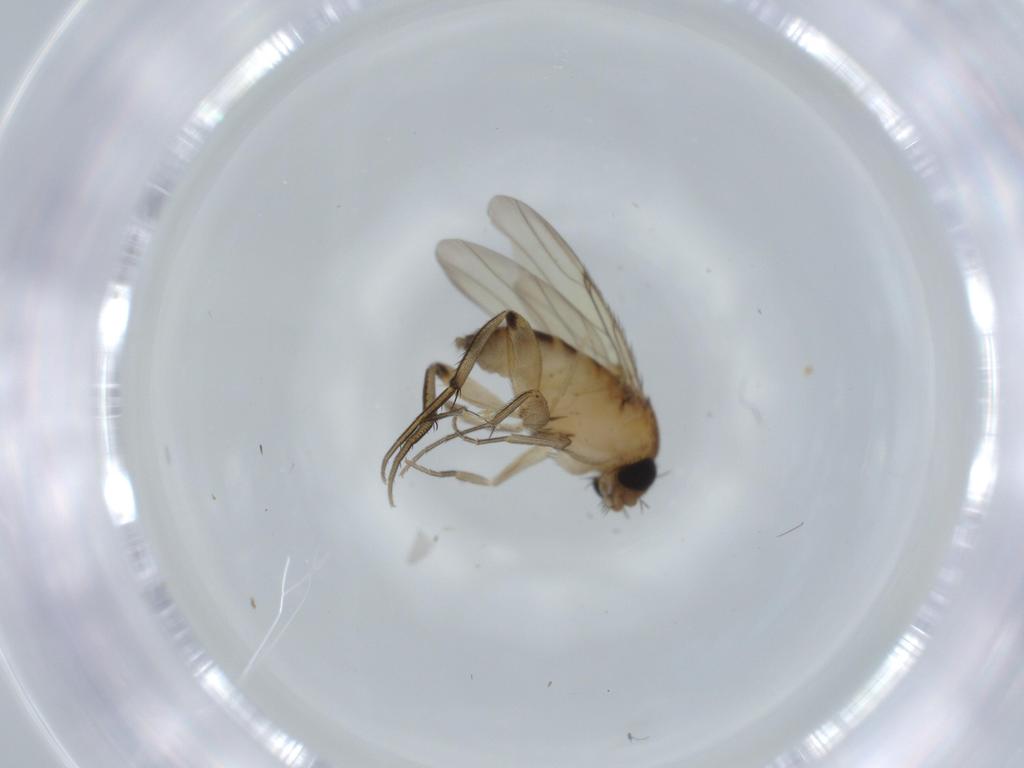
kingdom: Animalia
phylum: Arthropoda
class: Insecta
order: Diptera
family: Phoridae
